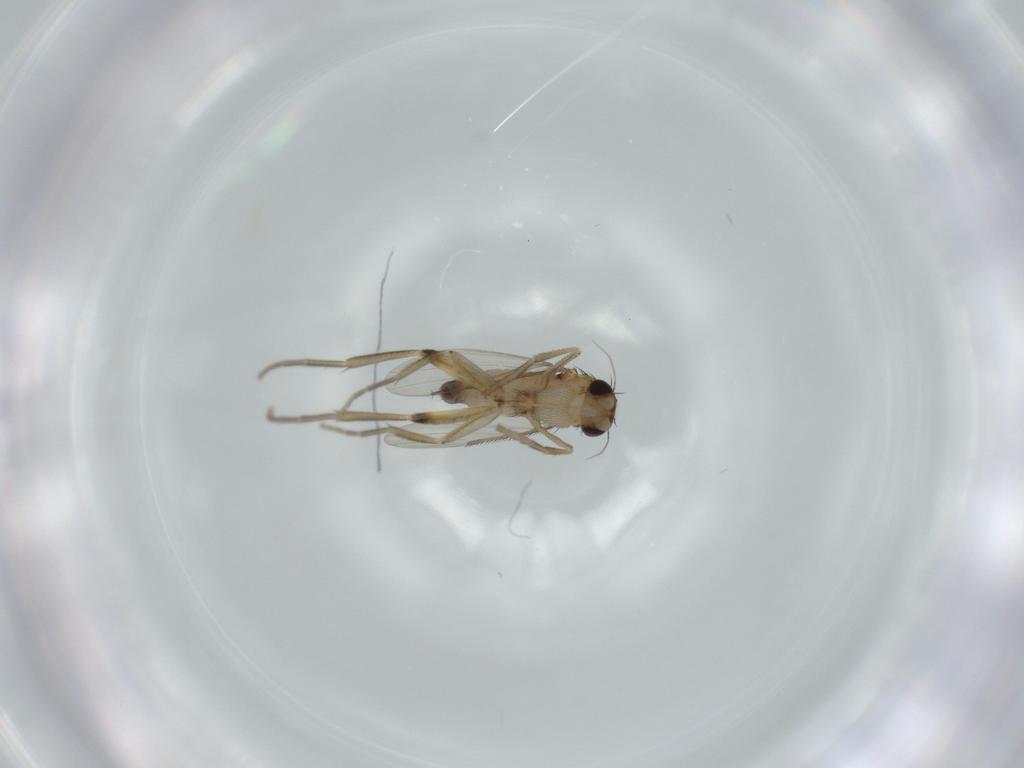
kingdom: Animalia
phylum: Arthropoda
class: Insecta
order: Diptera
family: Phoridae
